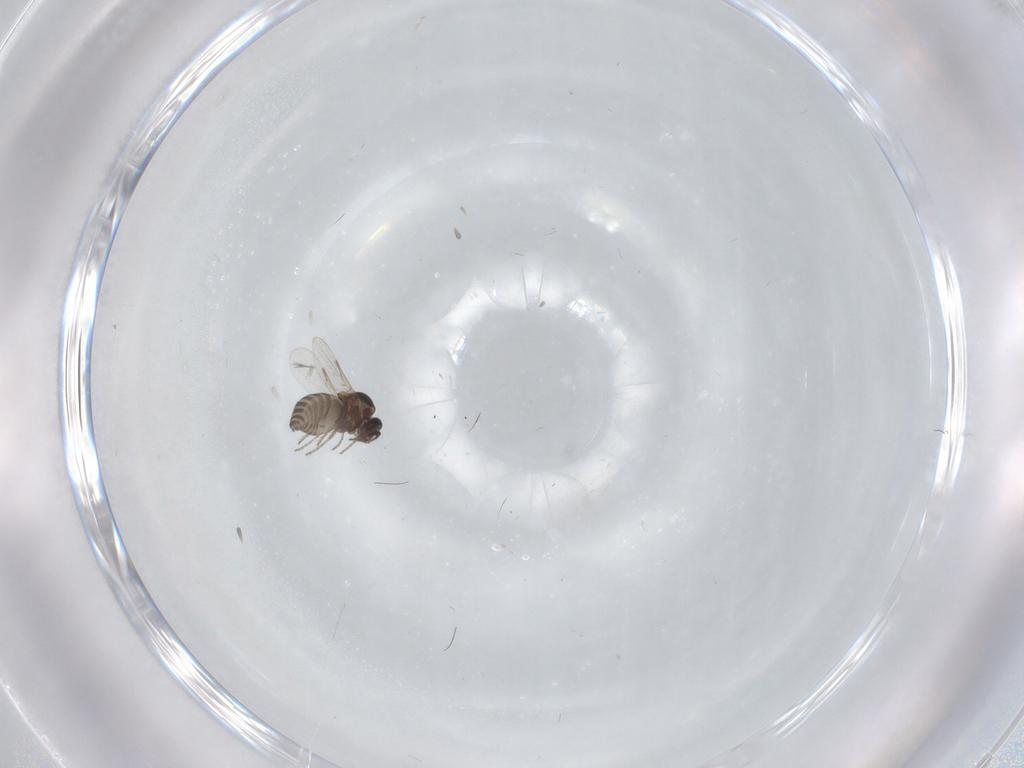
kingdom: Animalia
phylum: Arthropoda
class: Insecta
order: Diptera
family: Ceratopogonidae
